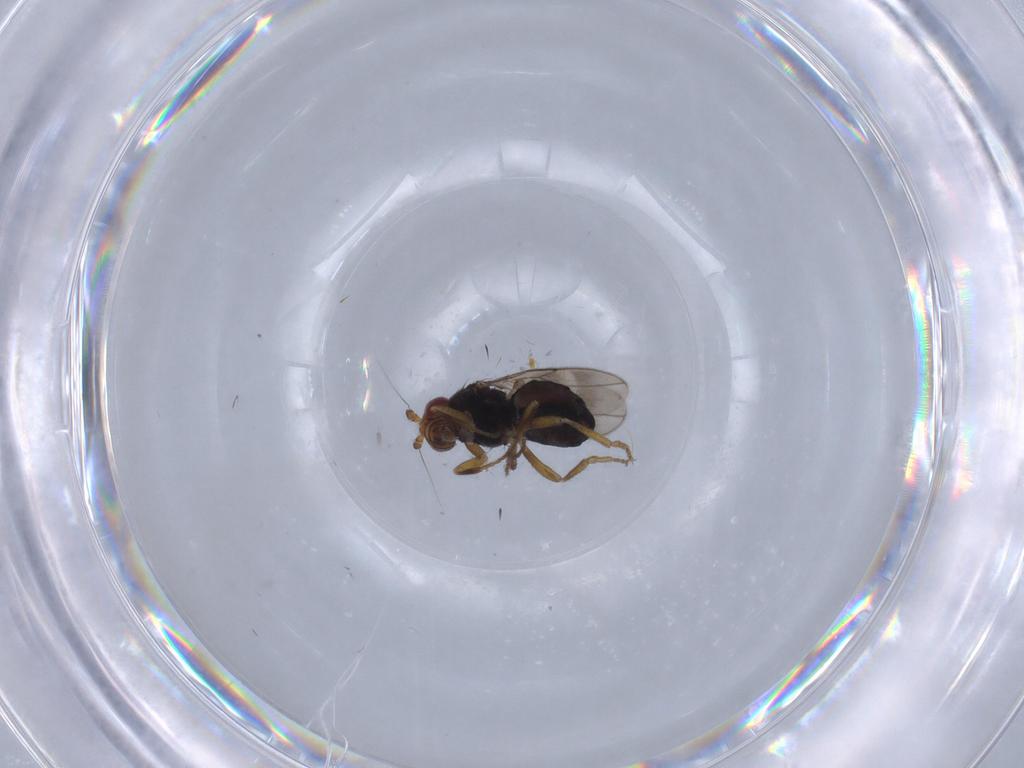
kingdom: Animalia
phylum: Arthropoda
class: Insecta
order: Diptera
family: Sphaeroceridae
